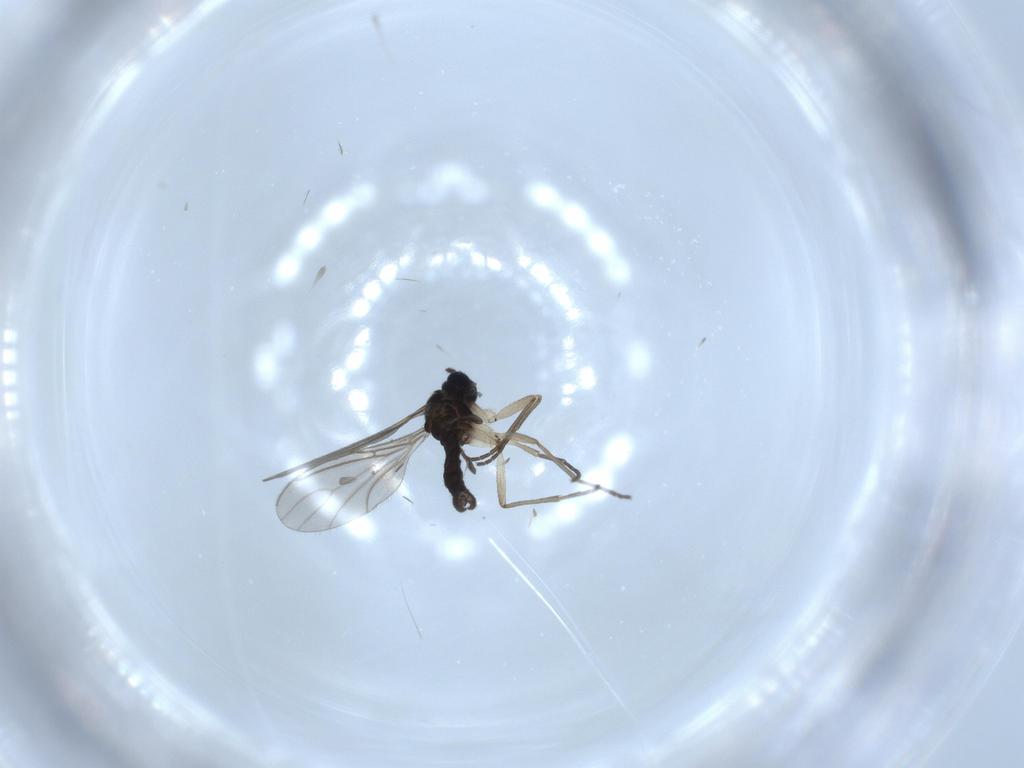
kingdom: Animalia
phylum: Arthropoda
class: Insecta
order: Diptera
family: Sciaridae
